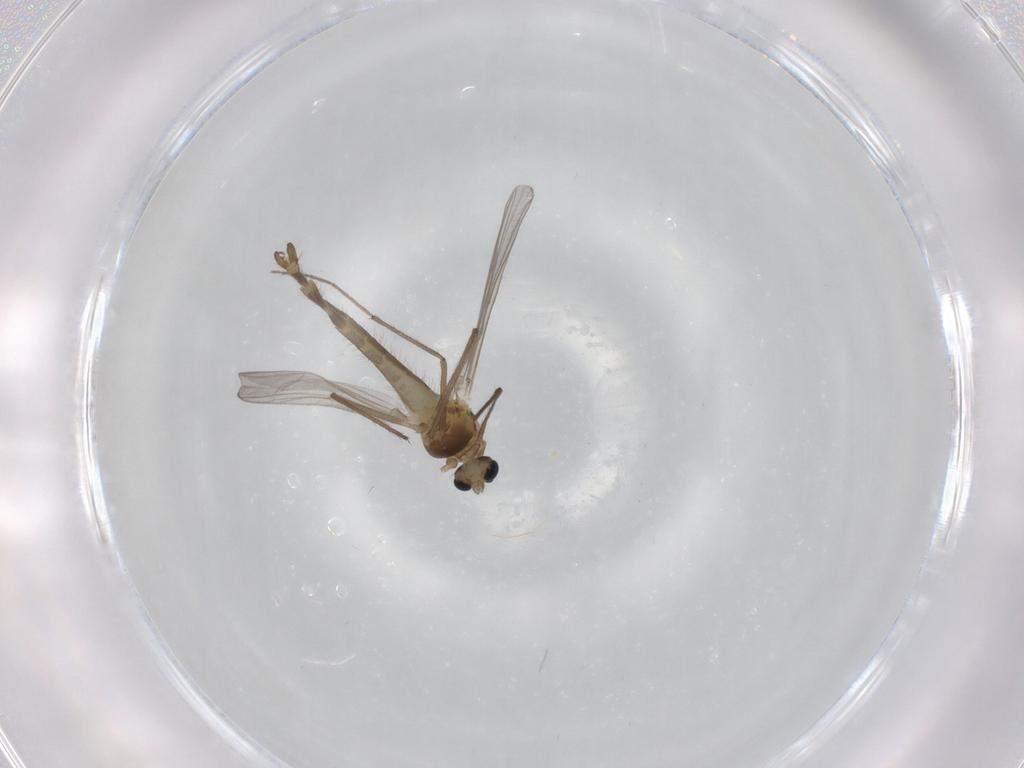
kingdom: Animalia
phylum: Arthropoda
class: Insecta
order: Diptera
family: Chironomidae
